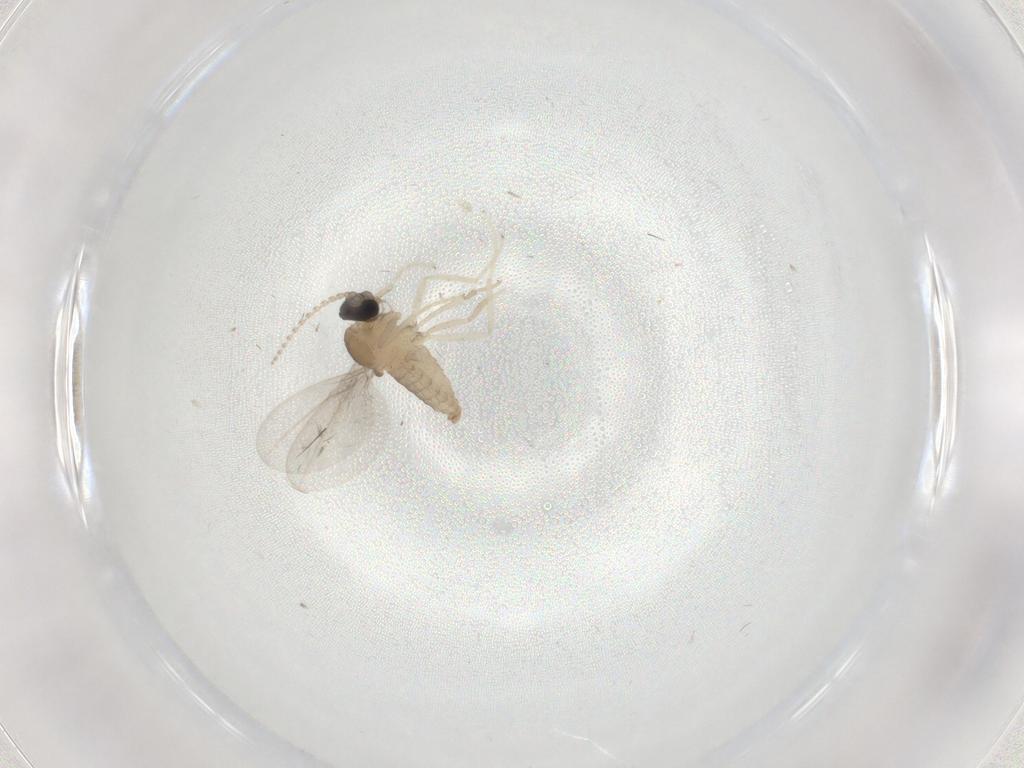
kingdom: Animalia
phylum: Arthropoda
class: Insecta
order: Diptera
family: Cecidomyiidae
